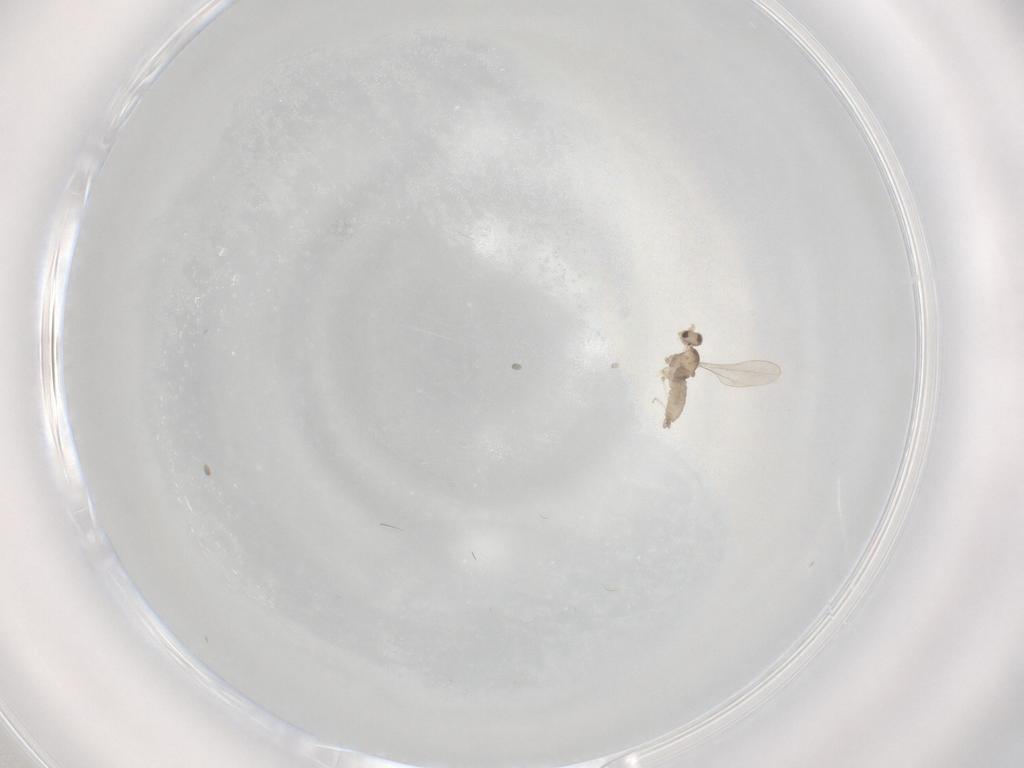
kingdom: Animalia
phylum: Arthropoda
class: Insecta
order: Diptera
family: Cecidomyiidae
